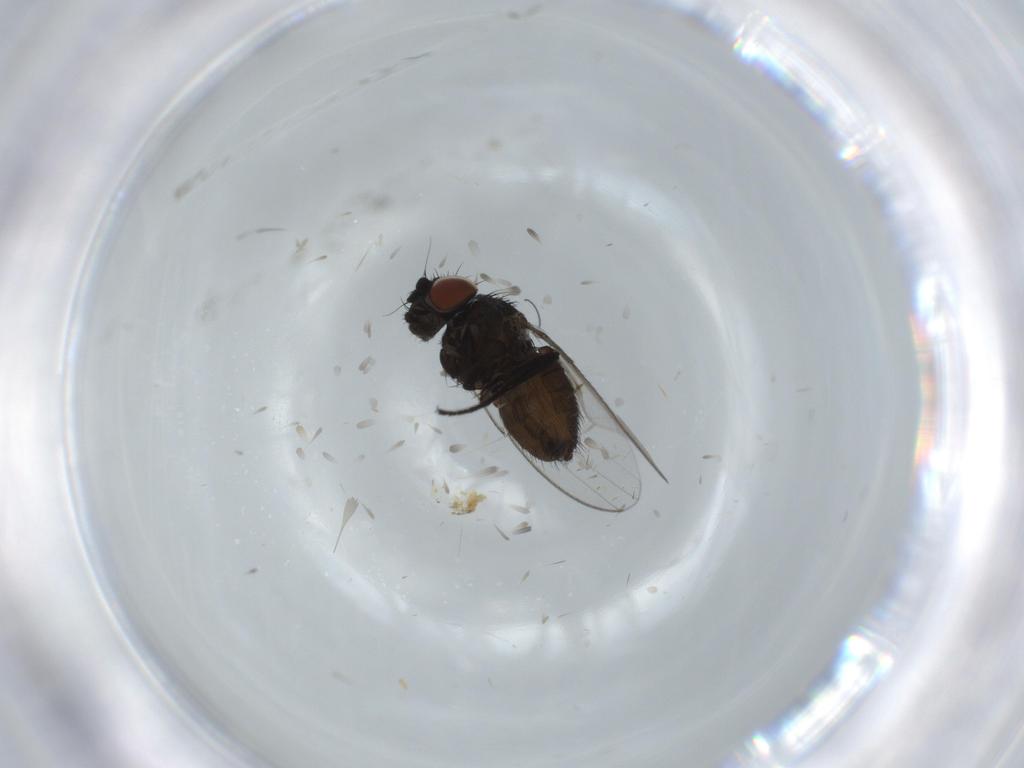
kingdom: Animalia
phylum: Arthropoda
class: Insecta
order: Diptera
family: Milichiidae
